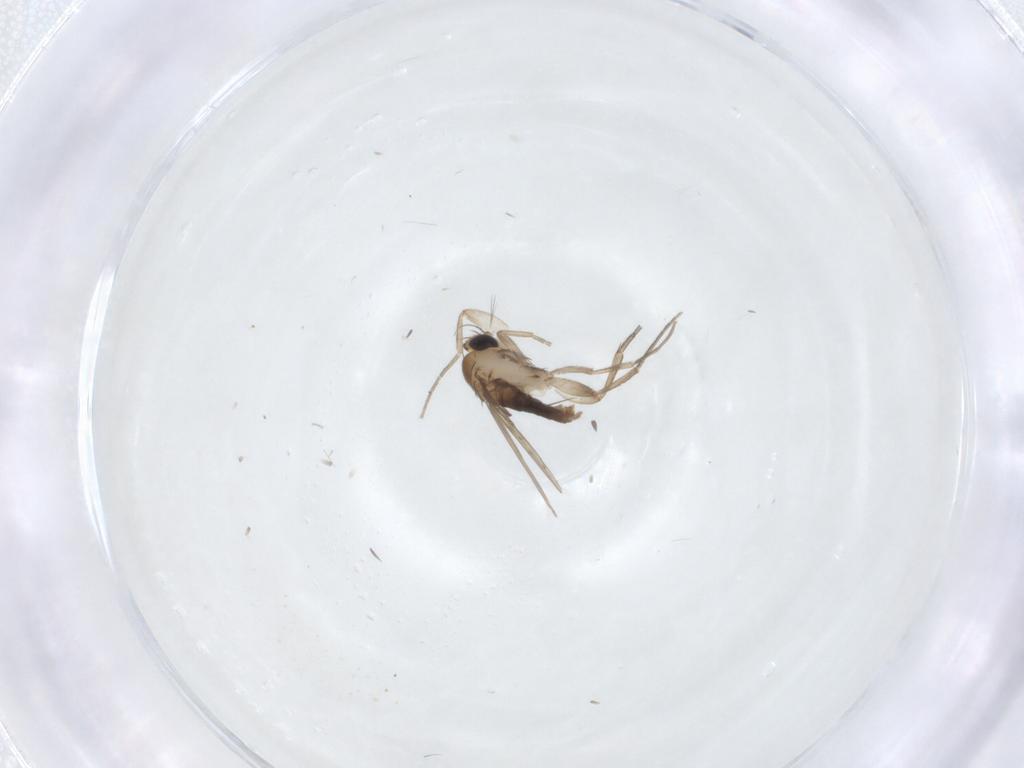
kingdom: Animalia
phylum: Arthropoda
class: Insecta
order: Diptera
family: Phoridae
